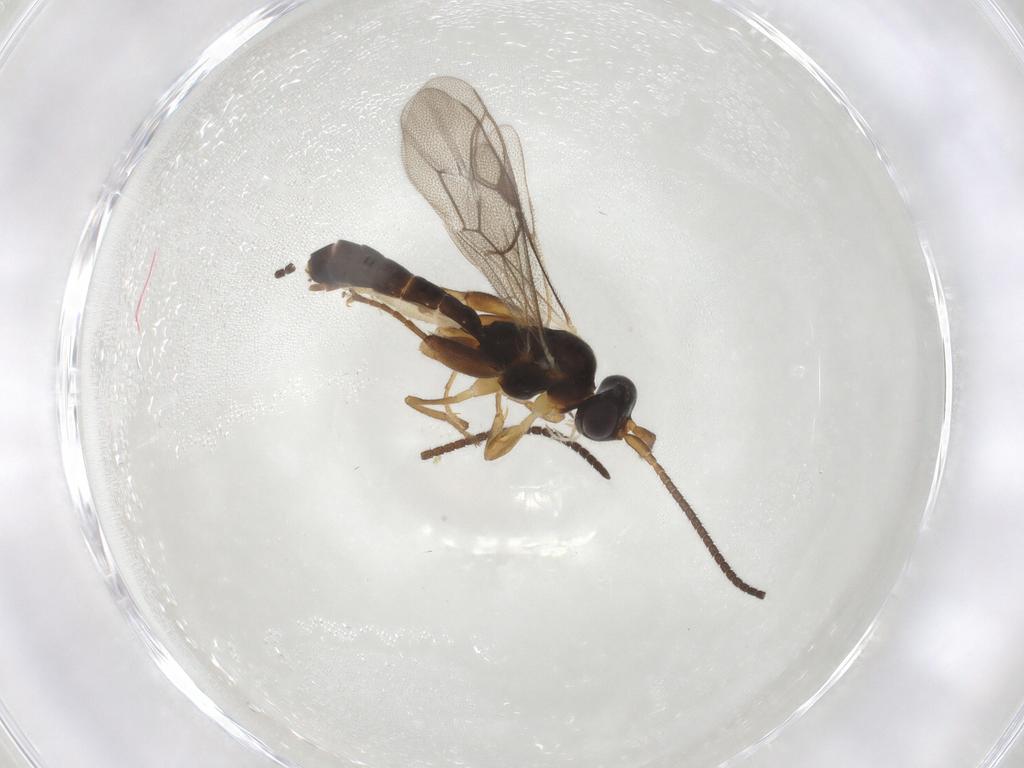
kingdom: Animalia
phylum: Arthropoda
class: Insecta
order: Hymenoptera
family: Ichneumonidae
